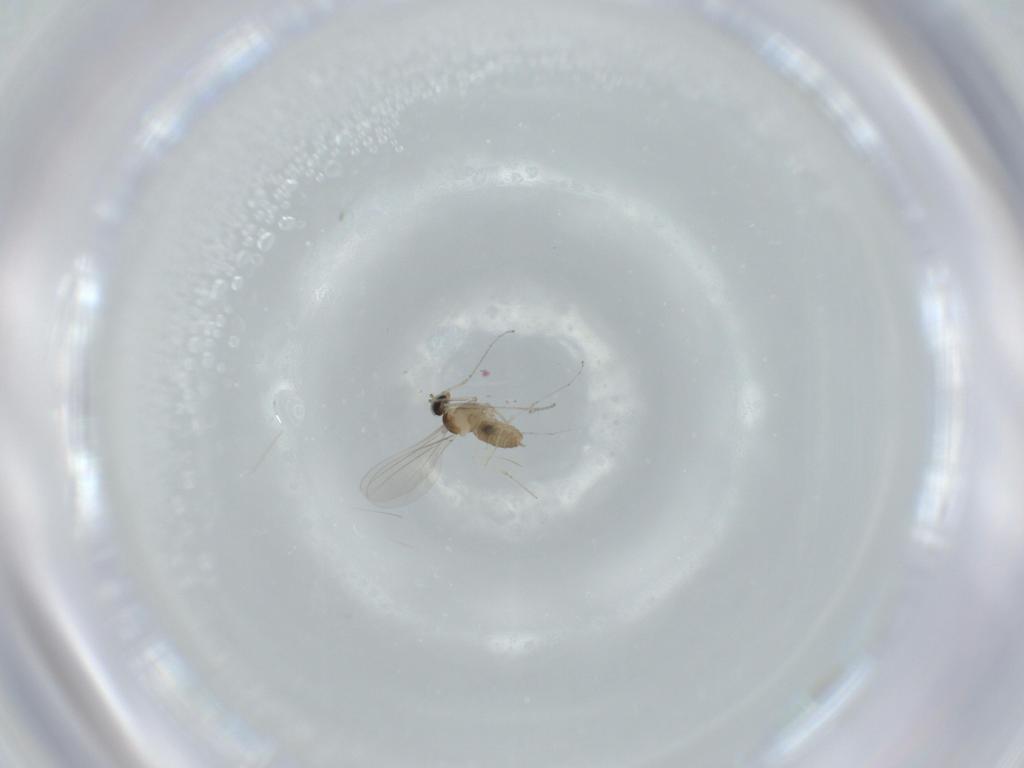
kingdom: Animalia
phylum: Arthropoda
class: Insecta
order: Diptera
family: Cecidomyiidae
